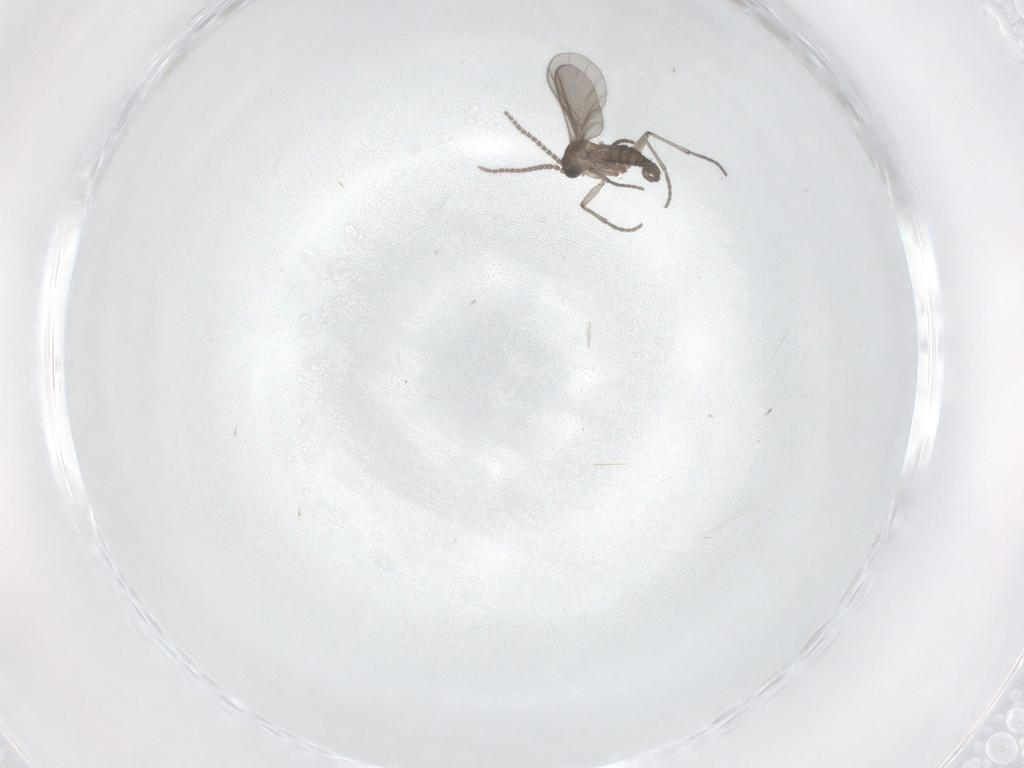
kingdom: Animalia
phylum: Arthropoda
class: Insecta
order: Diptera
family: Sciaridae
